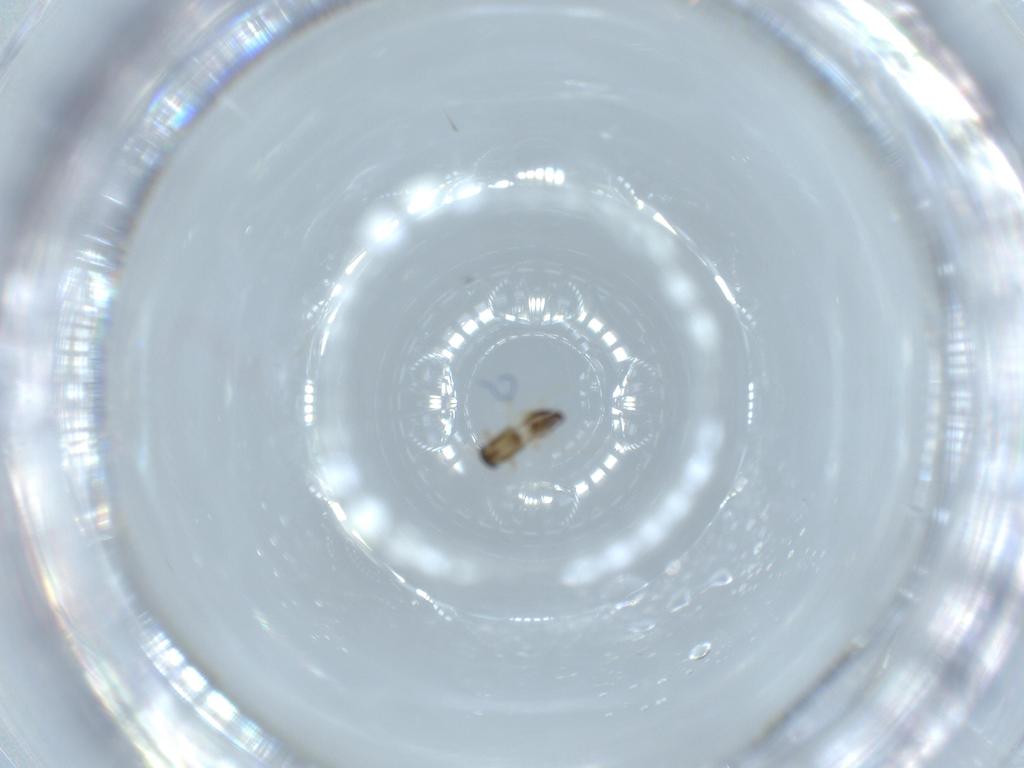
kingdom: Animalia
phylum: Arthropoda
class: Insecta
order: Diptera
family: Chironomidae
